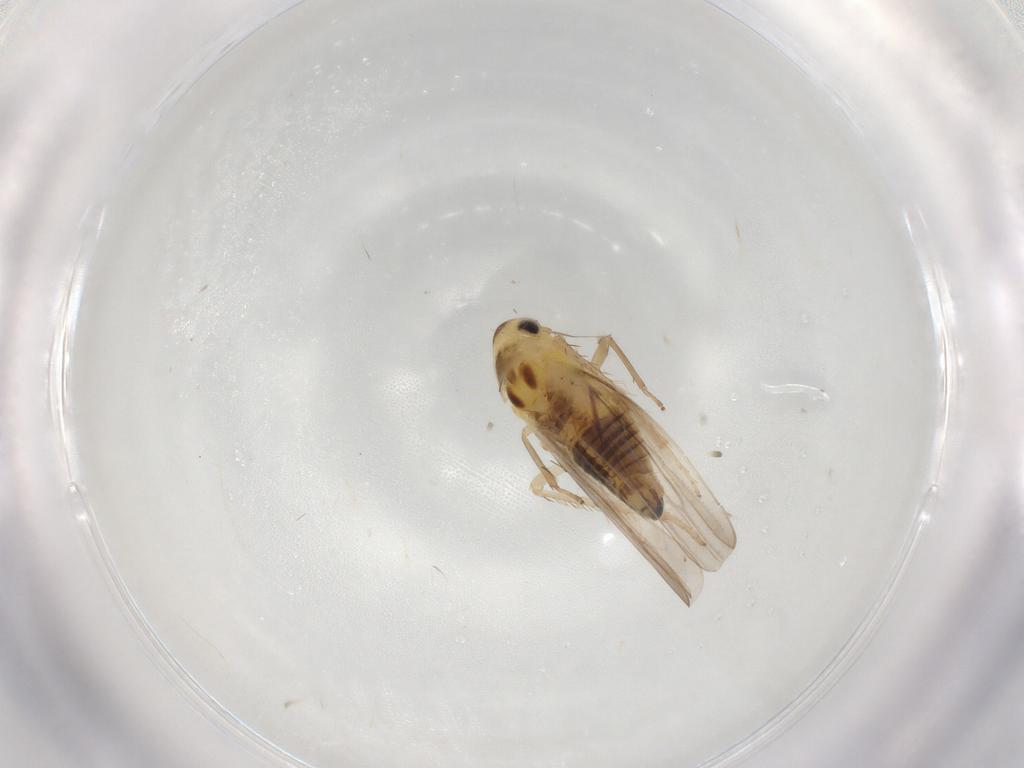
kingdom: Animalia
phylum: Arthropoda
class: Insecta
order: Hemiptera
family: Cicadellidae
